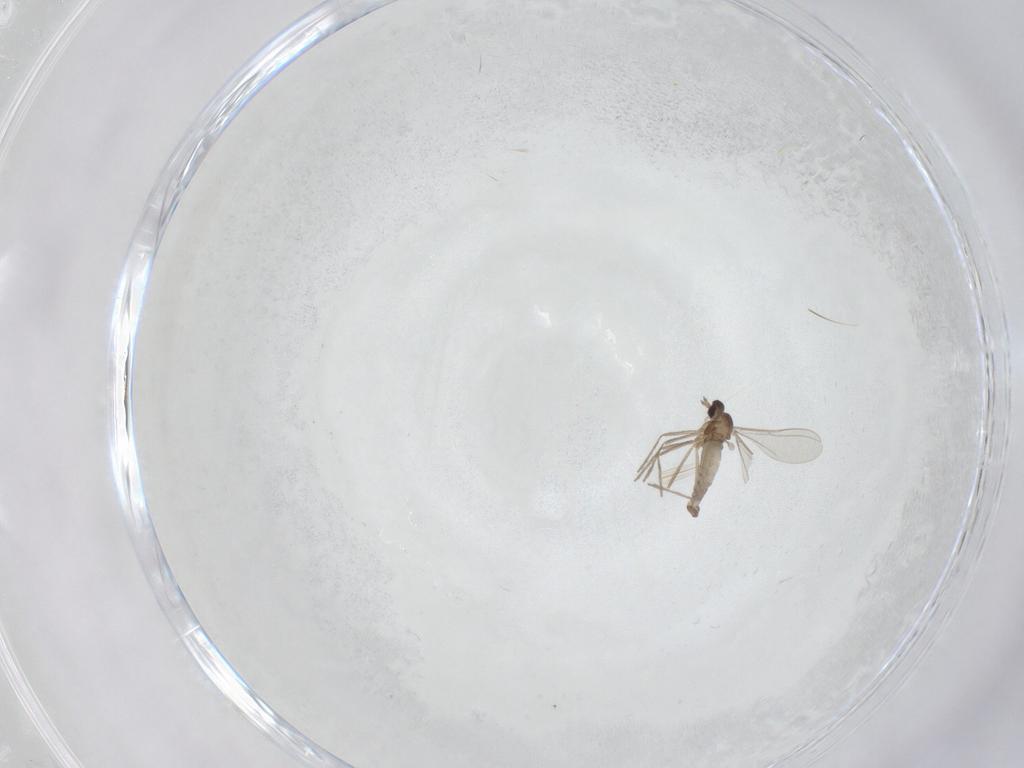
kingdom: Animalia
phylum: Arthropoda
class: Insecta
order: Diptera
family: Cecidomyiidae
